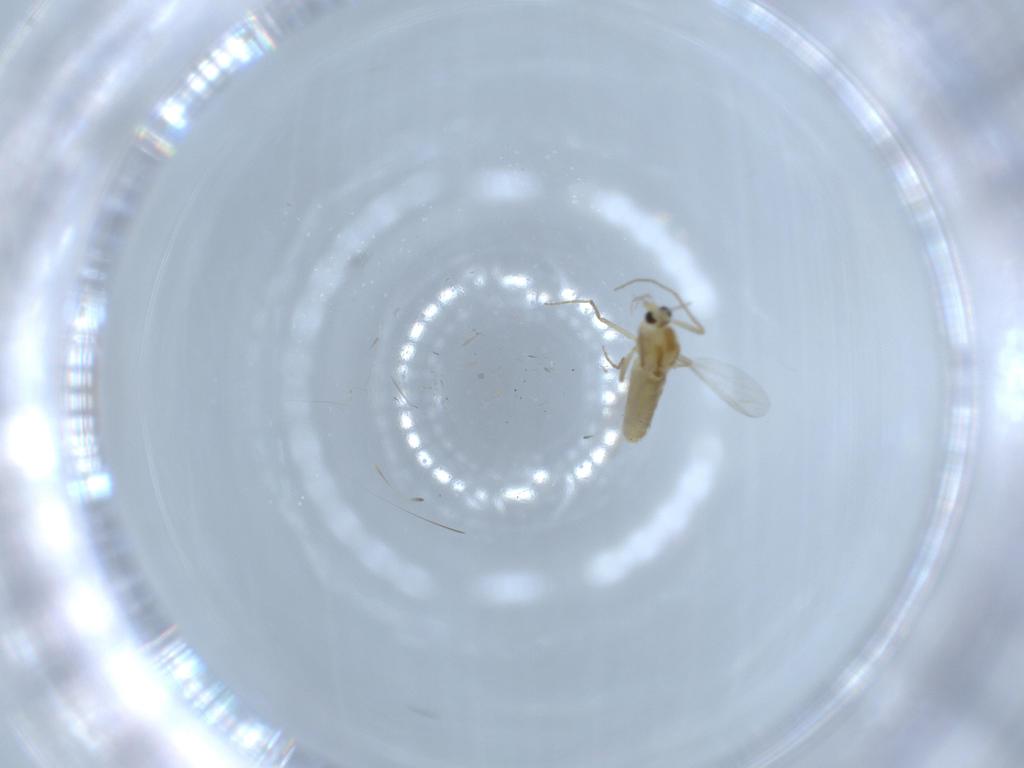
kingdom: Animalia
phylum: Arthropoda
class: Insecta
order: Diptera
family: Chironomidae
